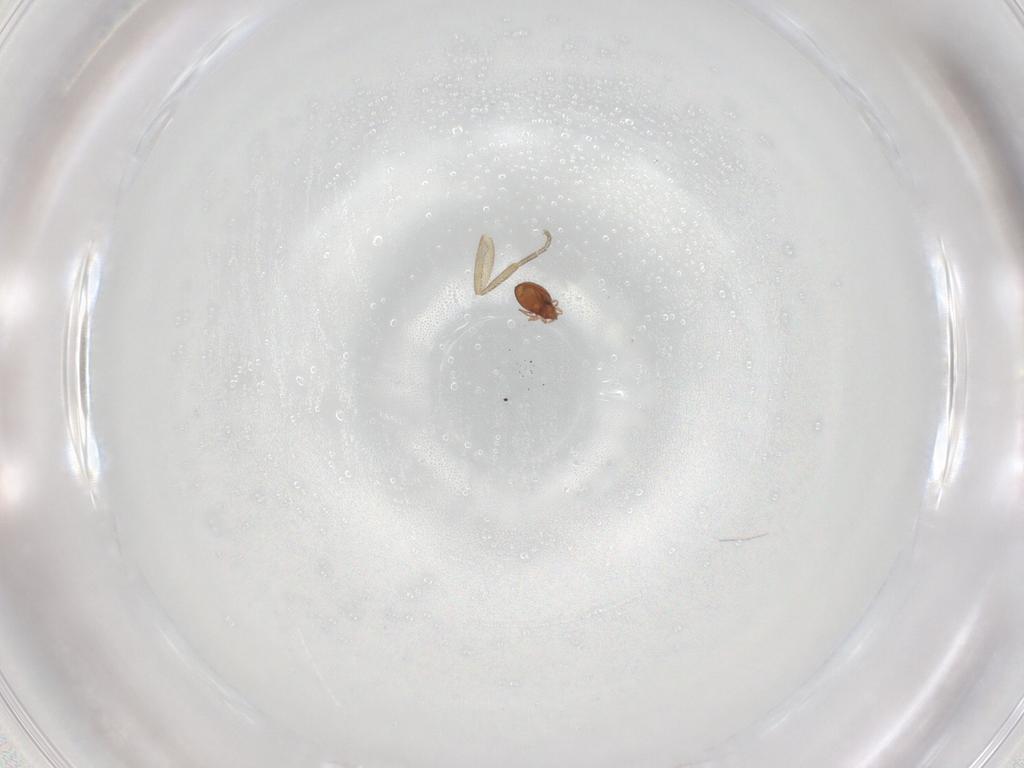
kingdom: Animalia
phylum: Arthropoda
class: Arachnida
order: Sarcoptiformes
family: Oribatulidae
